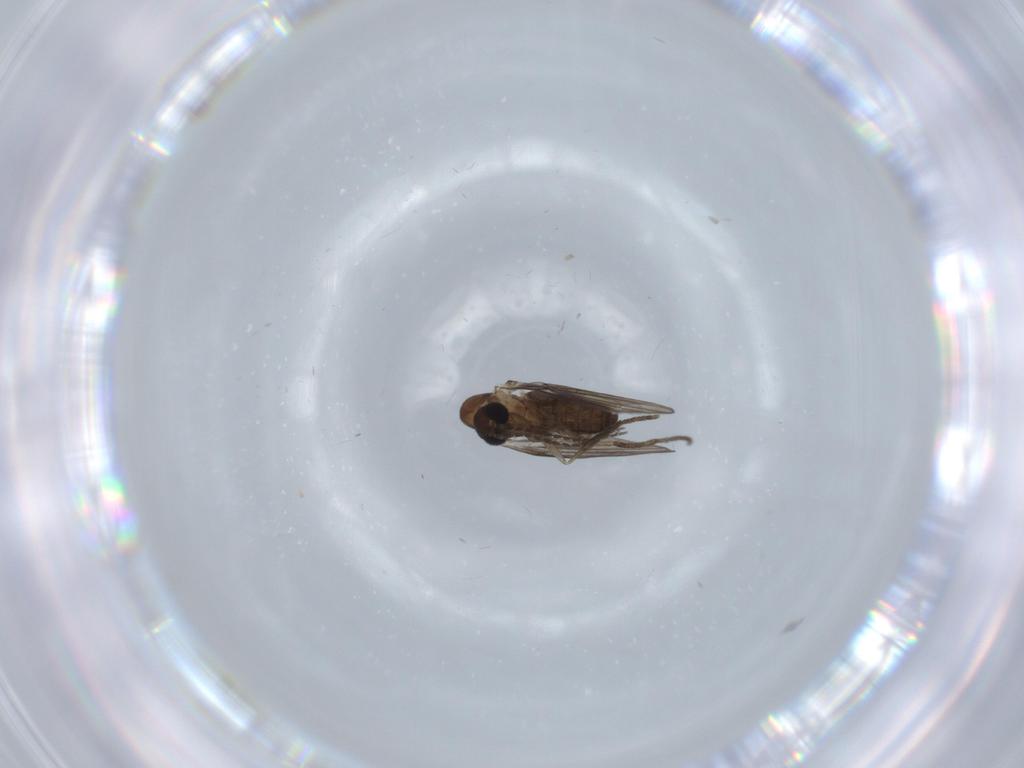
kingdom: Animalia
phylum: Arthropoda
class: Insecta
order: Diptera
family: Psychodidae
